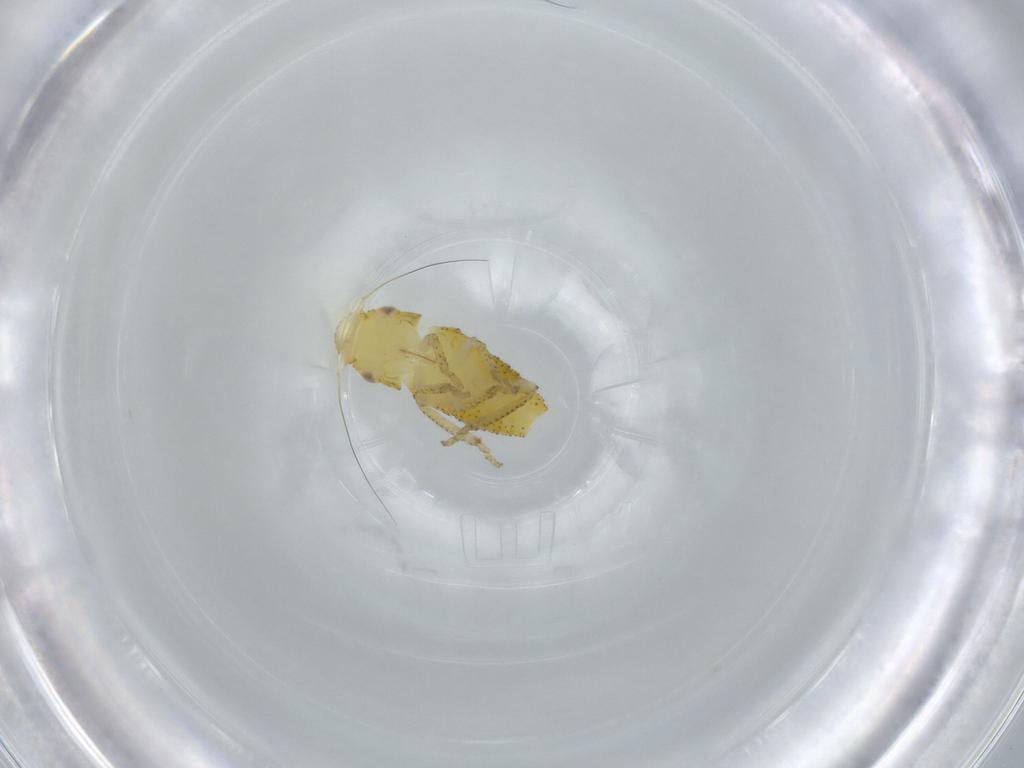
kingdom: Animalia
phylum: Arthropoda
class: Insecta
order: Hemiptera
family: Cicadellidae
